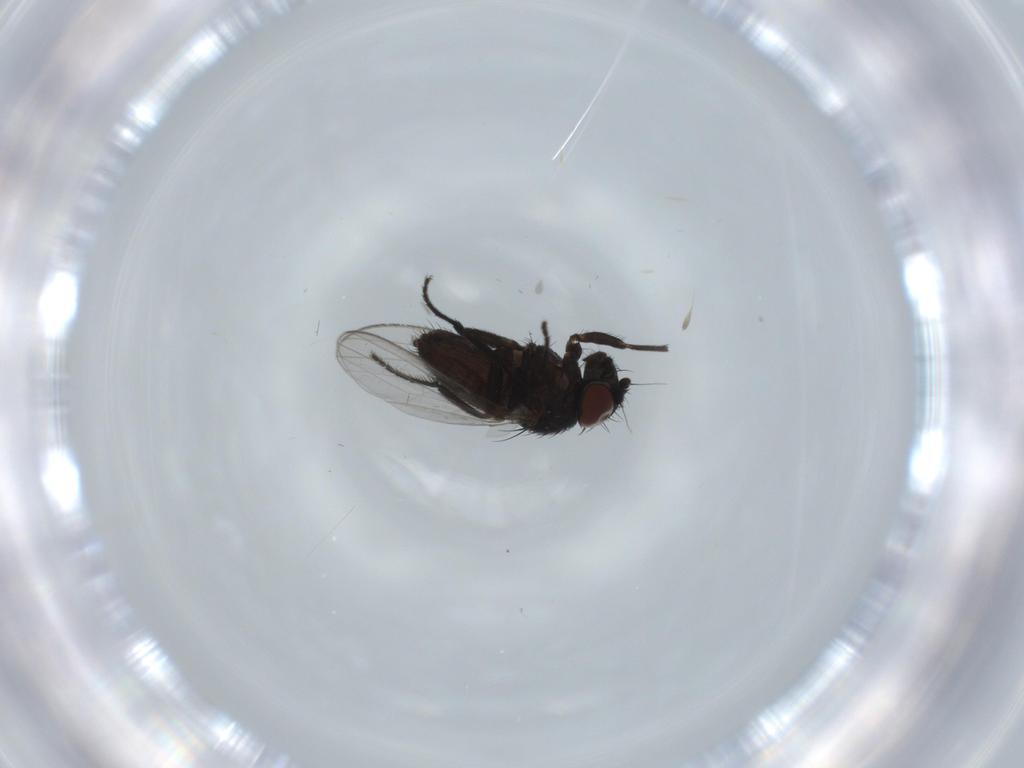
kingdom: Animalia
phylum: Arthropoda
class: Insecta
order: Diptera
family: Milichiidae
